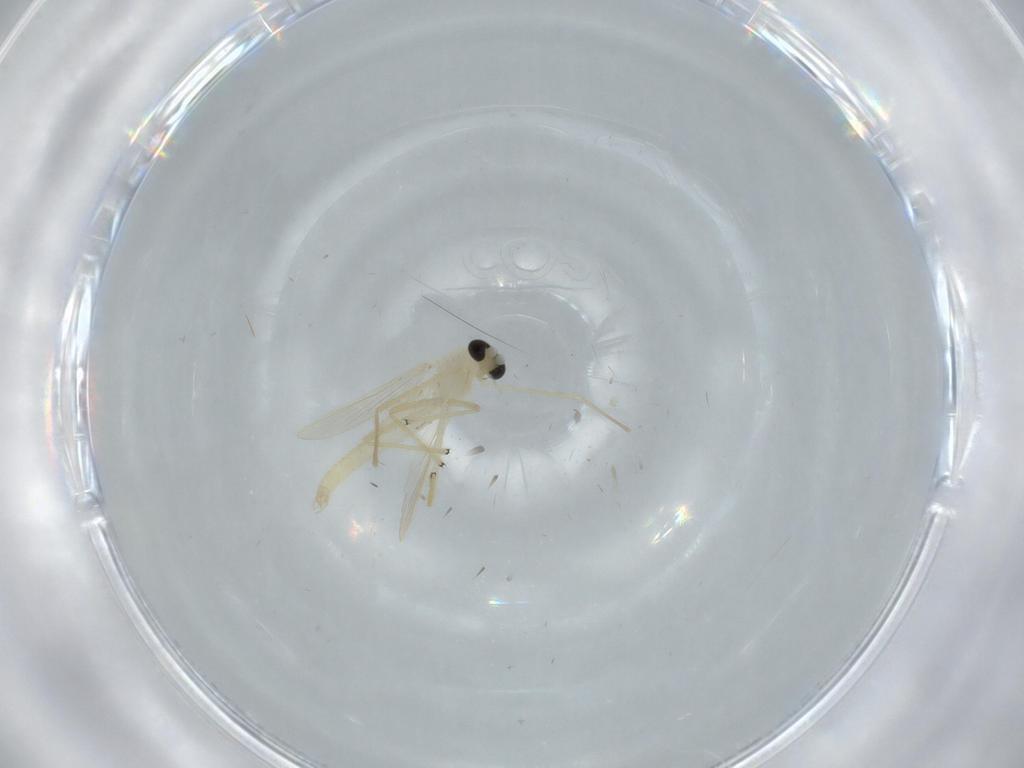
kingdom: Animalia
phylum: Arthropoda
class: Insecta
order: Diptera
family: Chironomidae
